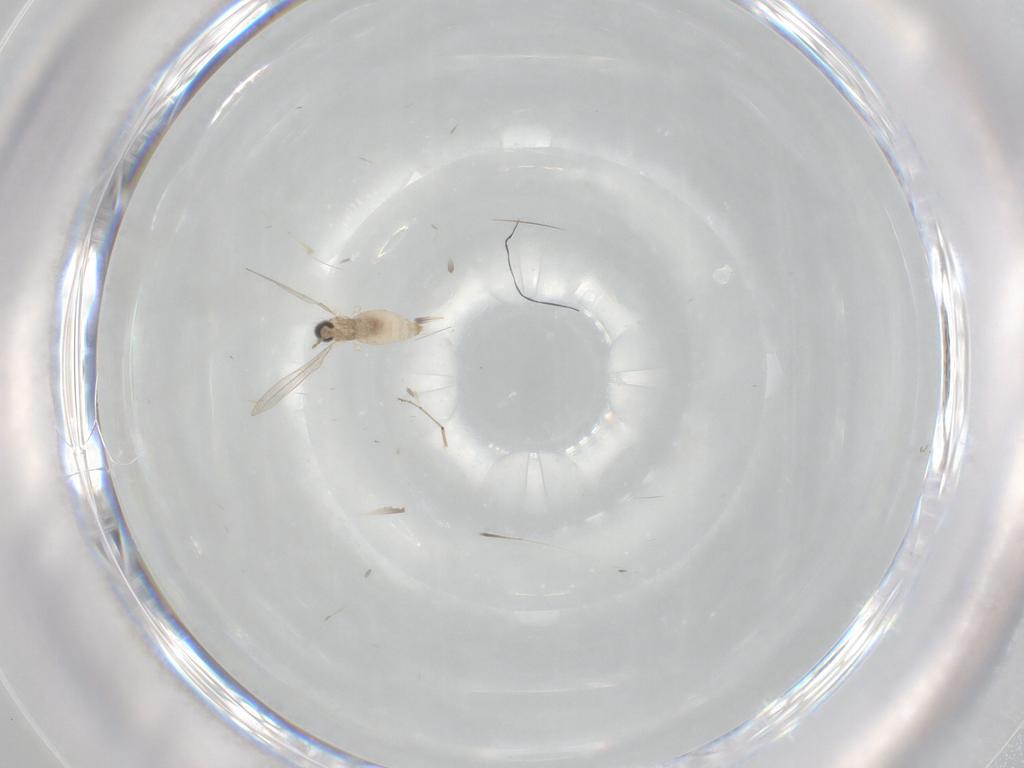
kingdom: Animalia
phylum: Arthropoda
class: Insecta
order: Diptera
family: Cecidomyiidae
